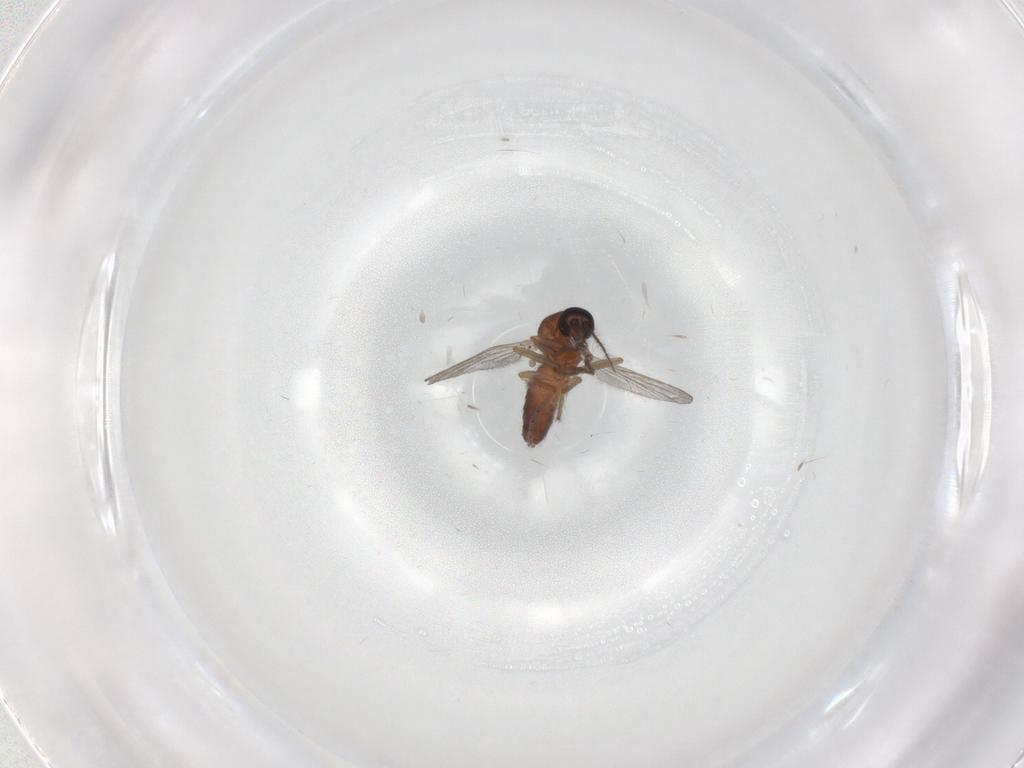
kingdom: Animalia
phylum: Arthropoda
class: Insecta
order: Diptera
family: Ceratopogonidae
